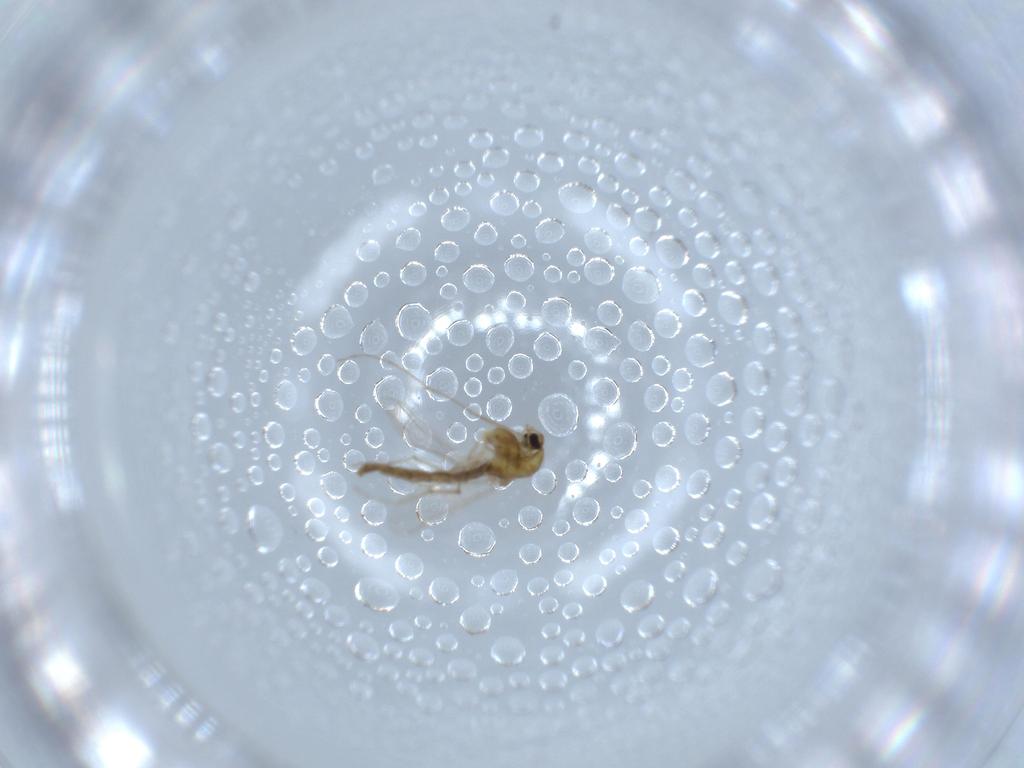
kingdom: Animalia
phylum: Arthropoda
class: Insecta
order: Diptera
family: Chironomidae
